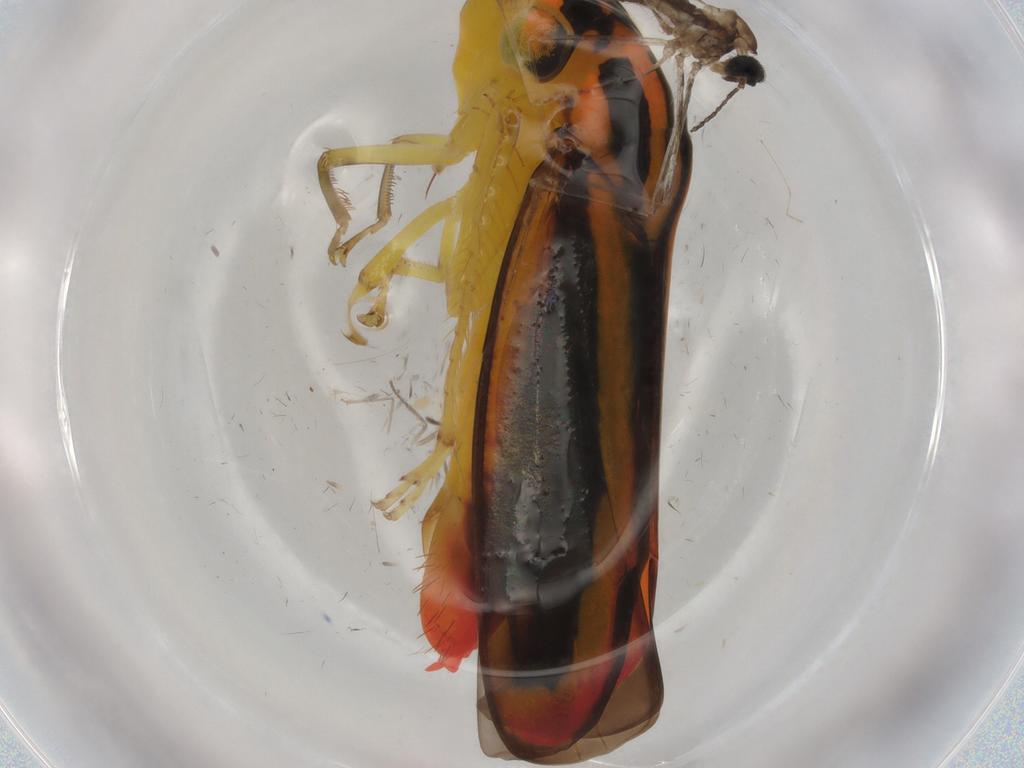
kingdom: Animalia
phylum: Arthropoda
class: Insecta
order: Diptera
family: Cecidomyiidae
